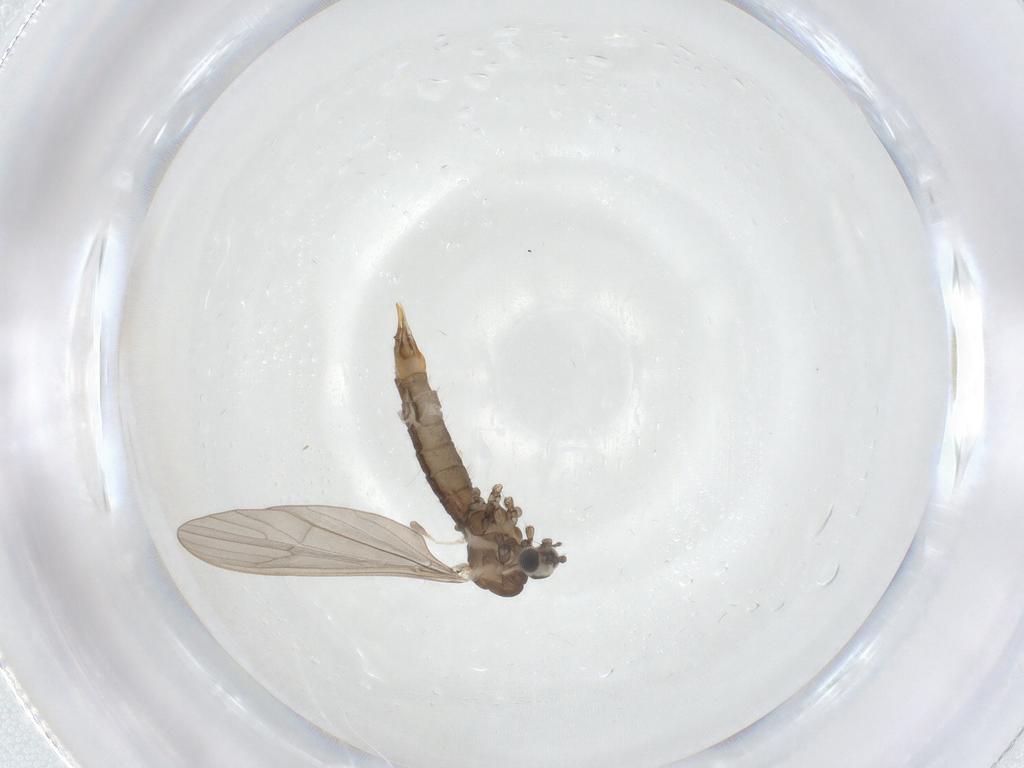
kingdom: Animalia
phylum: Arthropoda
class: Insecta
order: Diptera
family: Limoniidae
